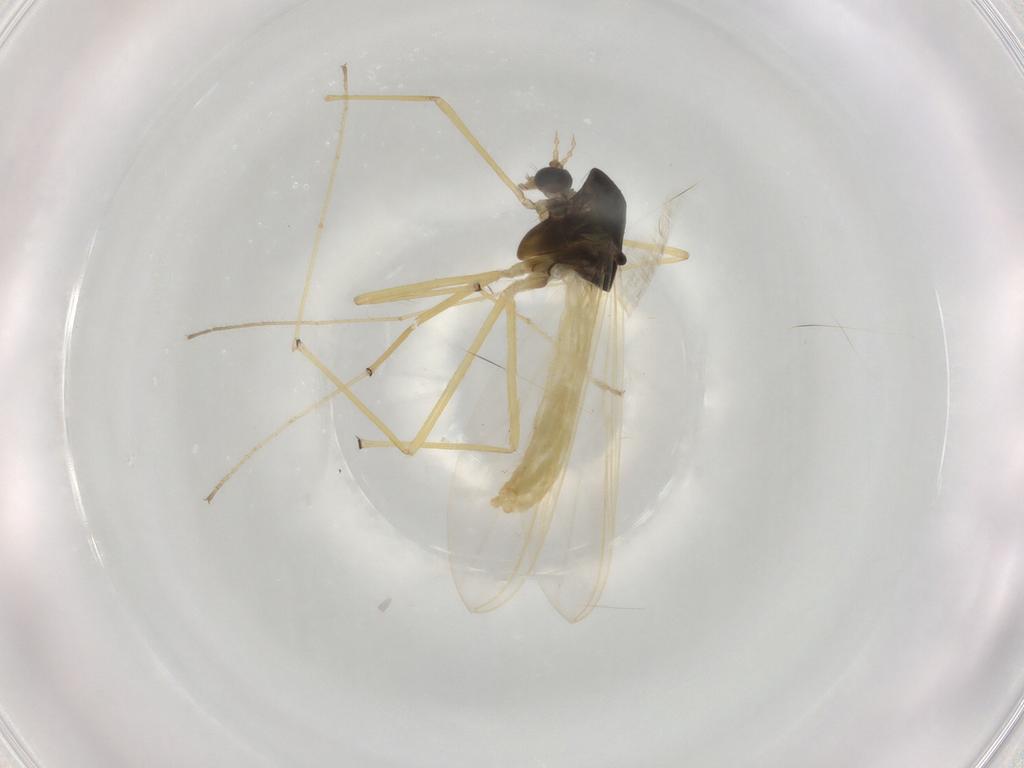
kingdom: Animalia
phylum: Arthropoda
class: Insecta
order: Diptera
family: Chironomidae
